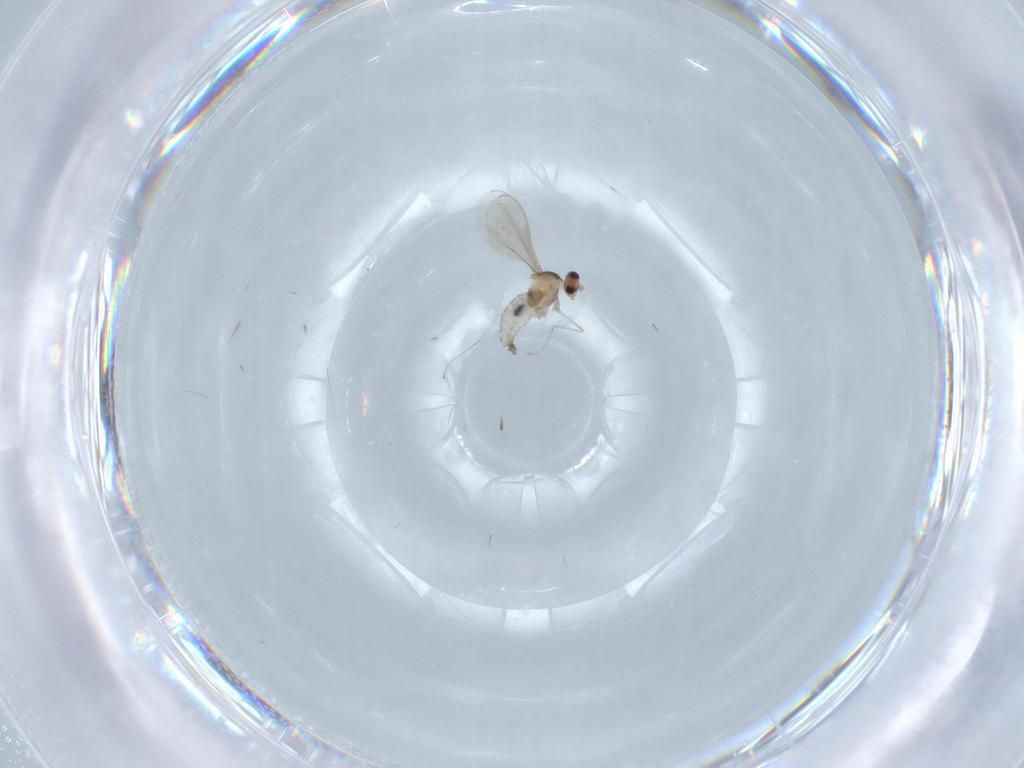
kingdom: Animalia
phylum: Arthropoda
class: Insecta
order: Diptera
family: Cecidomyiidae
